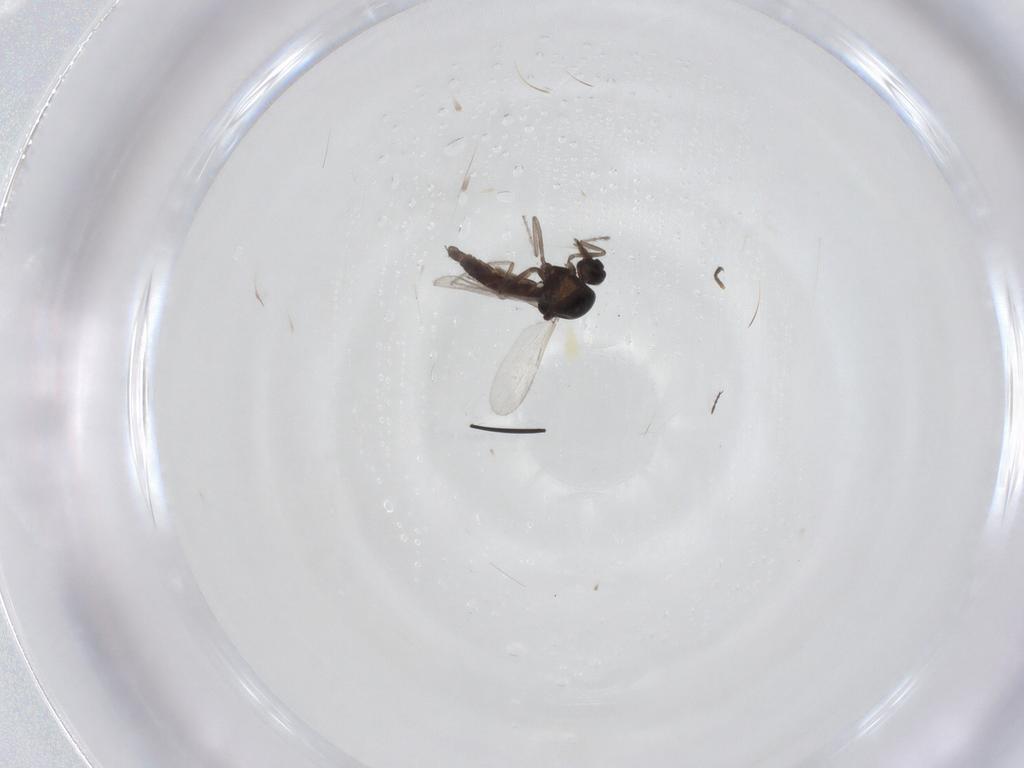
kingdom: Animalia
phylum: Arthropoda
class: Insecta
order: Diptera
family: Ceratopogonidae
